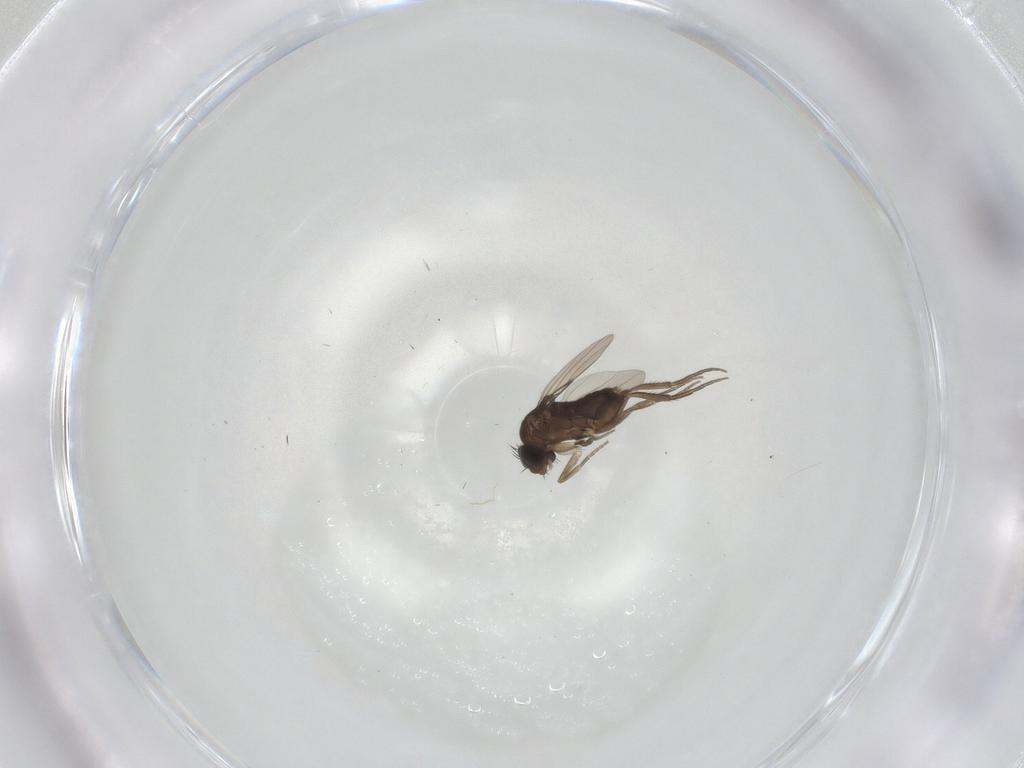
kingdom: Animalia
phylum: Arthropoda
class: Insecta
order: Diptera
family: Phoridae
